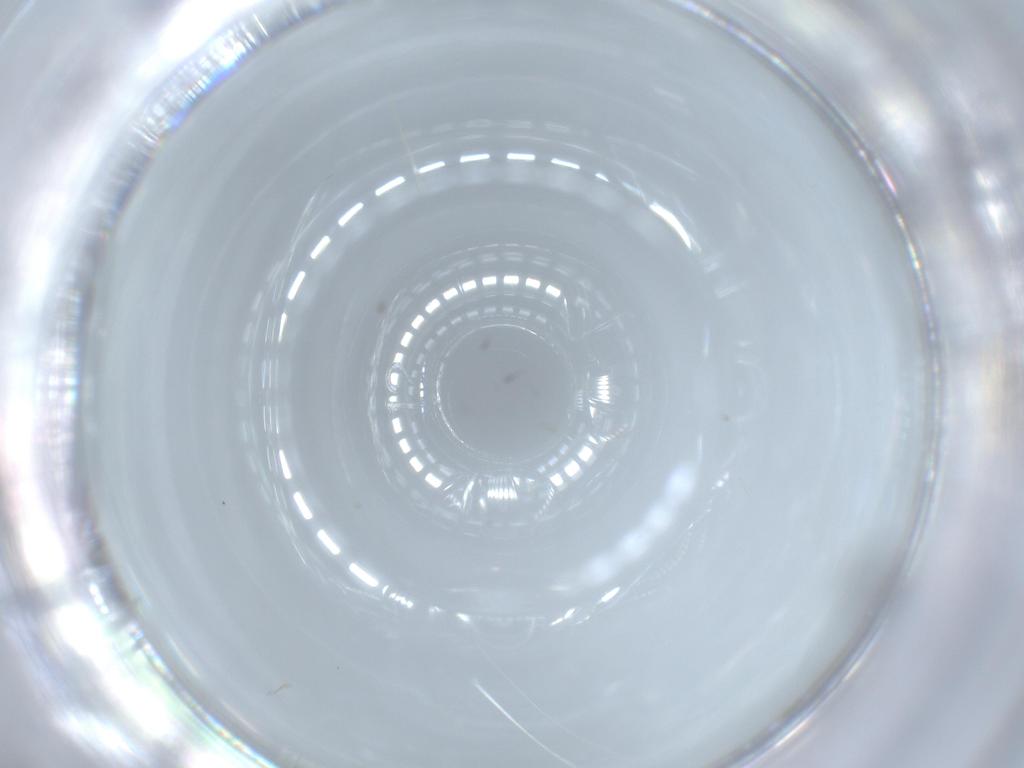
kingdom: Animalia
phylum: Arthropoda
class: Insecta
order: Diptera
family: Cecidomyiidae
